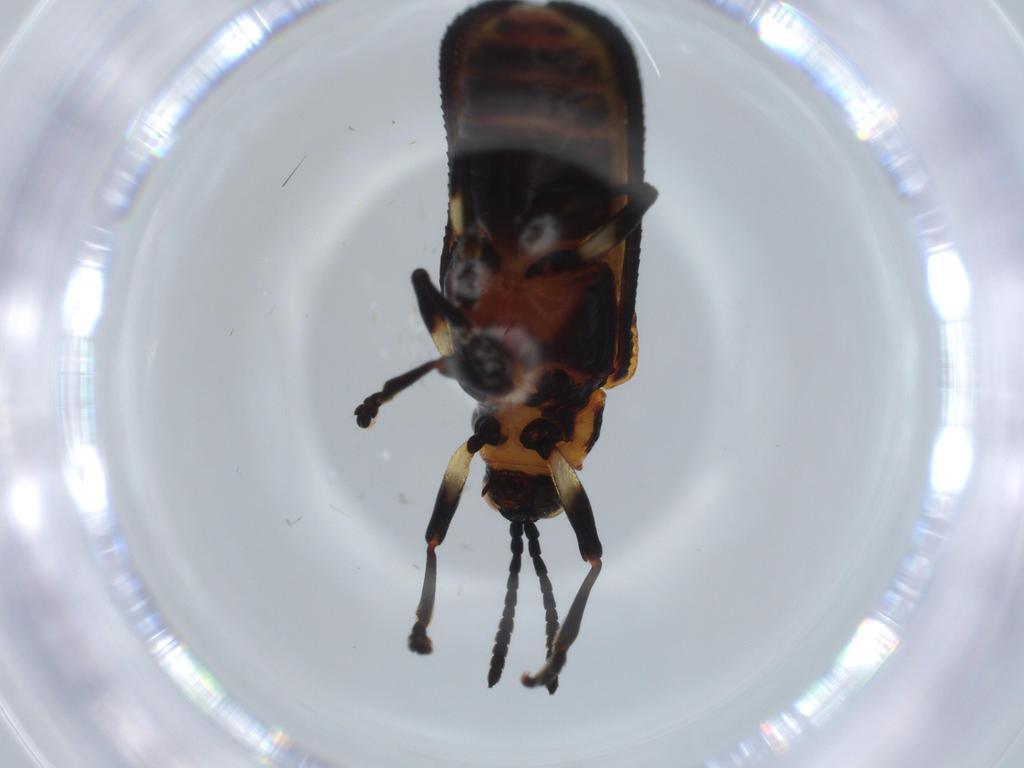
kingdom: Animalia
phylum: Arthropoda
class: Insecta
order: Coleoptera
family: Chrysomelidae
